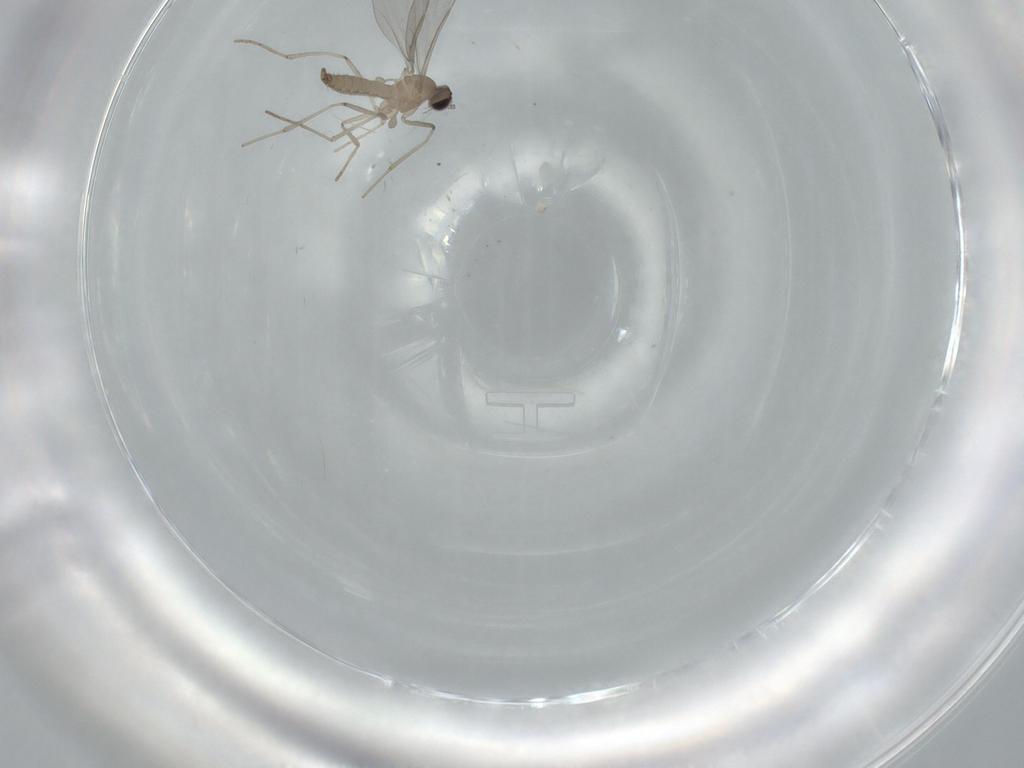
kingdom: Animalia
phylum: Arthropoda
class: Insecta
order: Diptera
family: Cecidomyiidae
